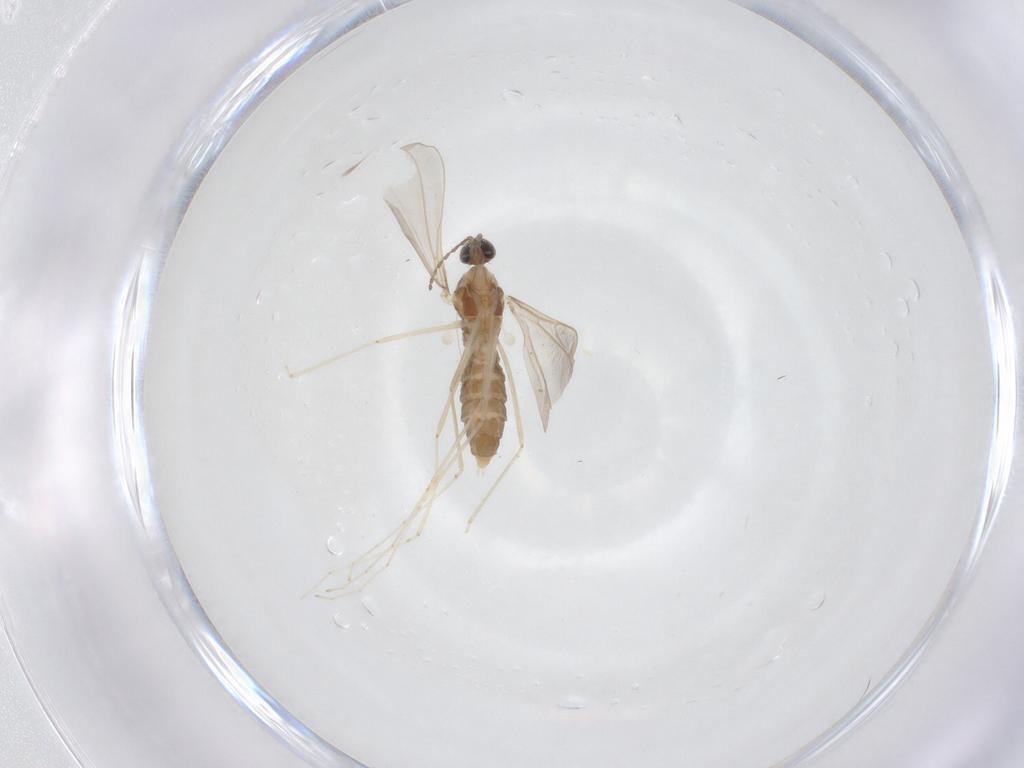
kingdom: Animalia
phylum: Arthropoda
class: Insecta
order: Diptera
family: Cecidomyiidae
